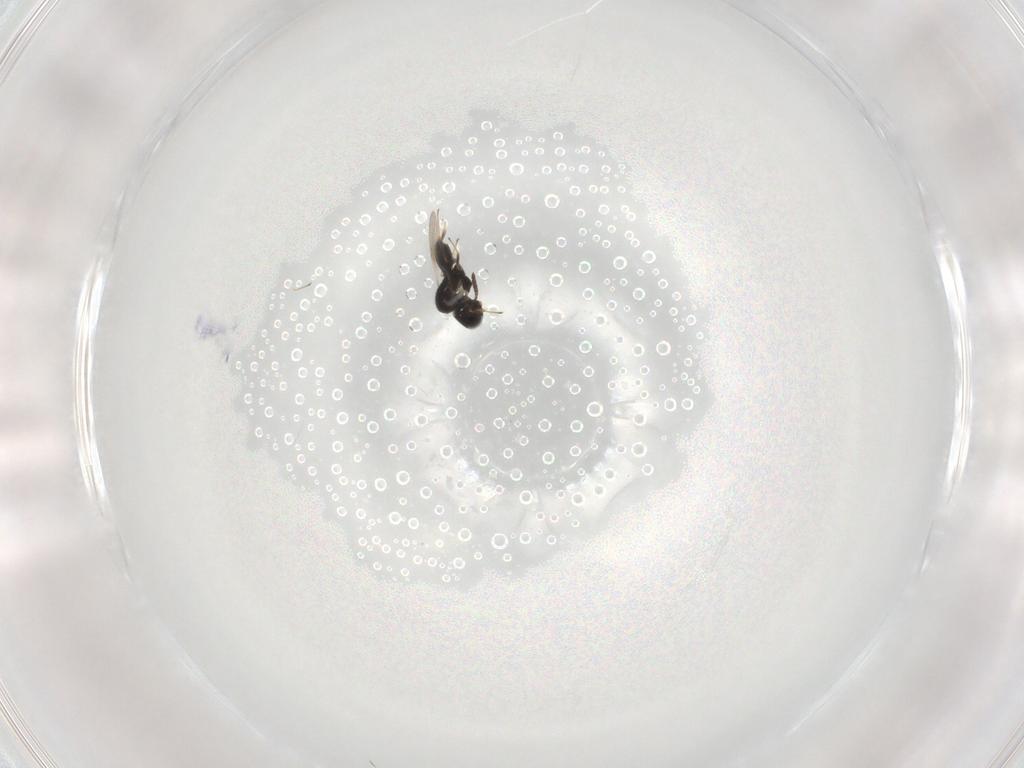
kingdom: Animalia
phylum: Arthropoda
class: Insecta
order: Hymenoptera
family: Scelionidae
